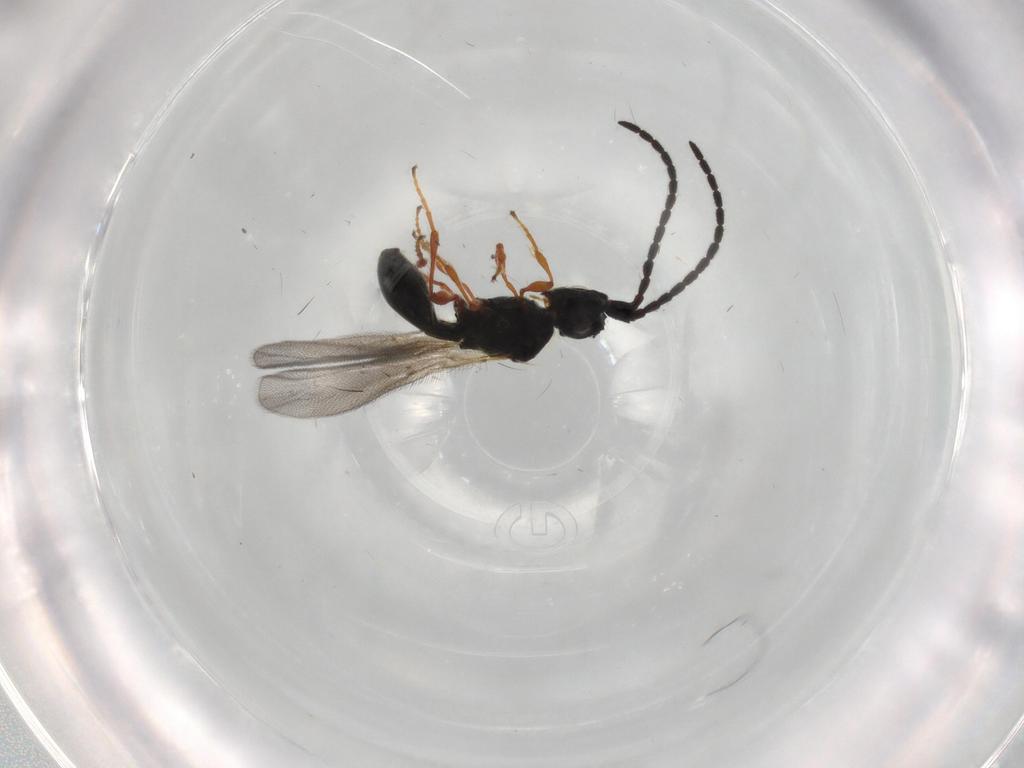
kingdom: Animalia
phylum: Arthropoda
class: Insecta
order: Hymenoptera
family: Diapriidae
